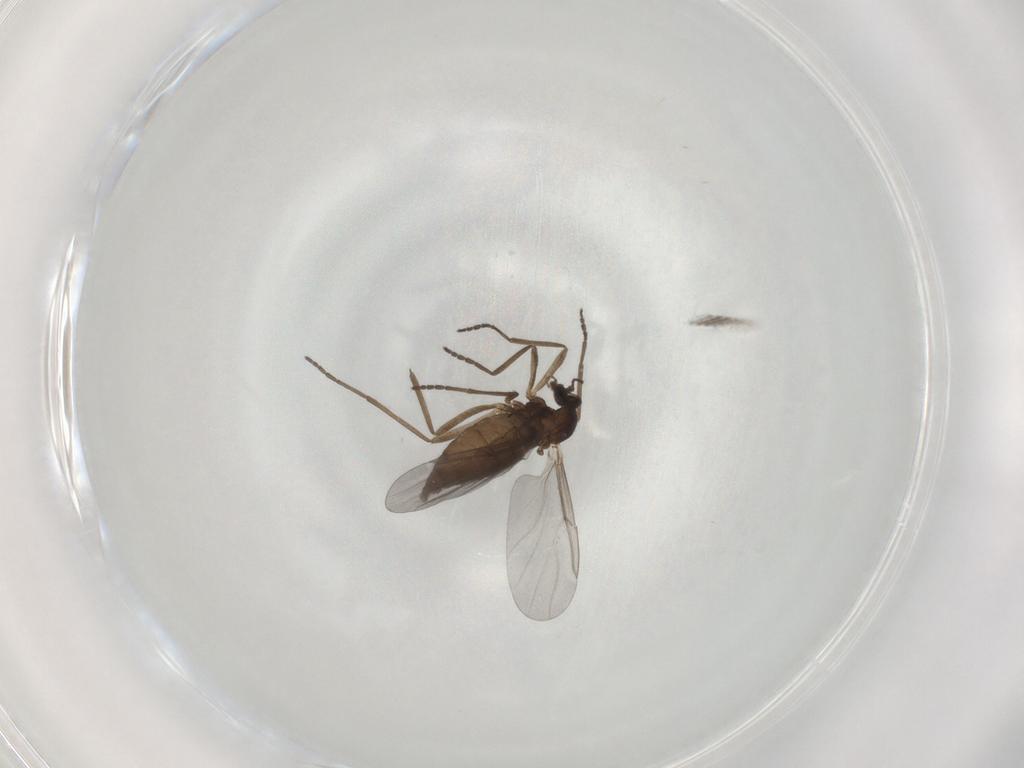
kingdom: Animalia
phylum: Arthropoda
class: Insecta
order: Diptera
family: Cecidomyiidae
